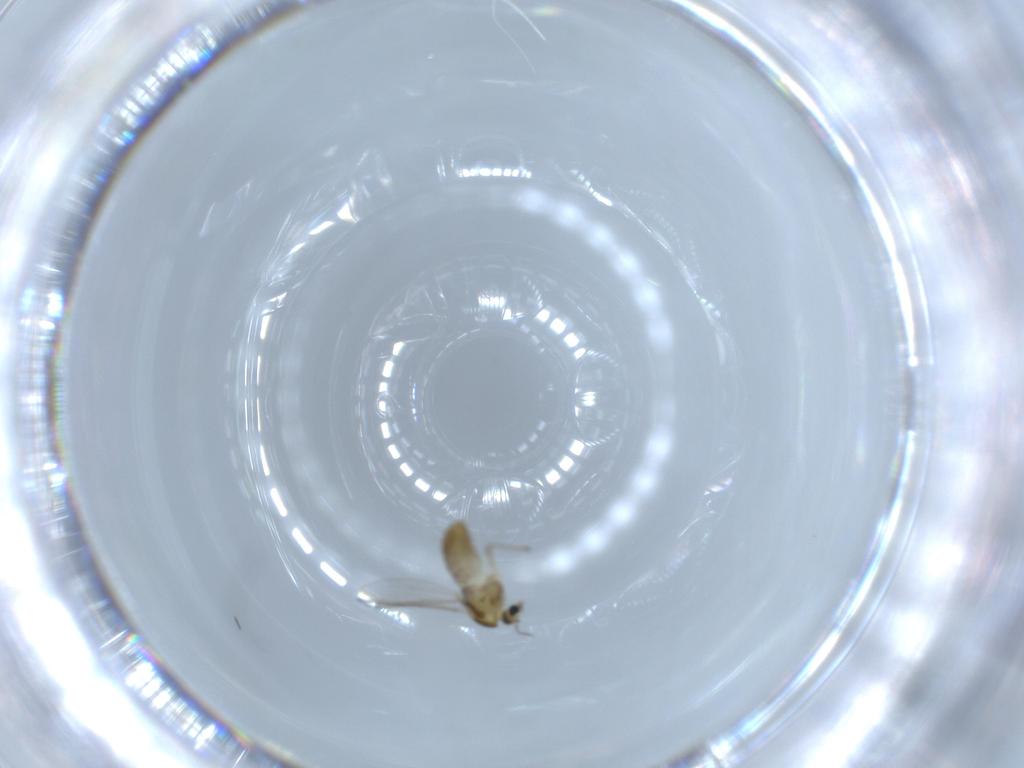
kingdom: Animalia
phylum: Arthropoda
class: Insecta
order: Diptera
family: Chironomidae
